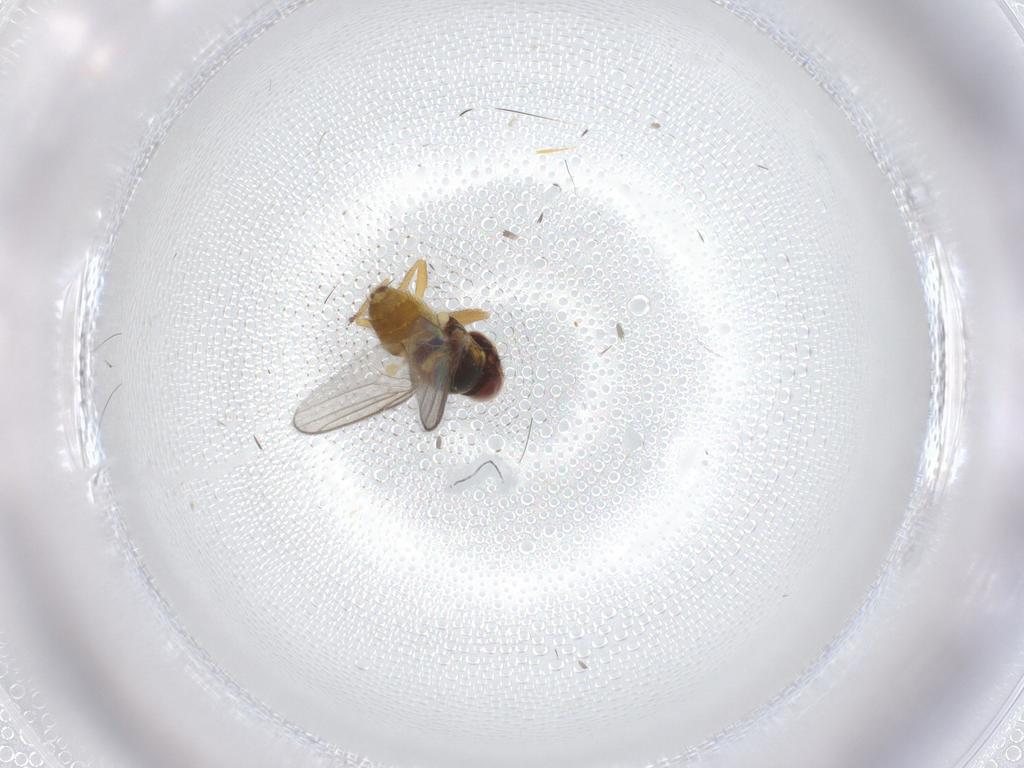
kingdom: Animalia
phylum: Arthropoda
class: Insecta
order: Diptera
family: Chloropidae
